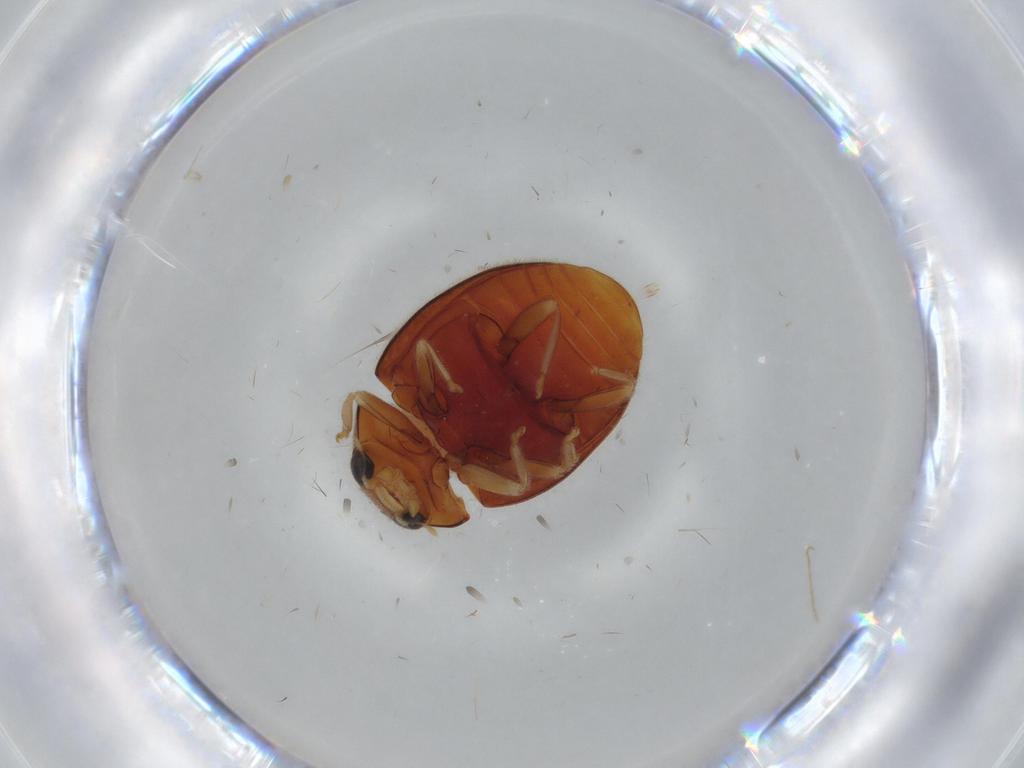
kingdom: Animalia
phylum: Arthropoda
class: Insecta
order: Coleoptera
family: Coccinellidae
